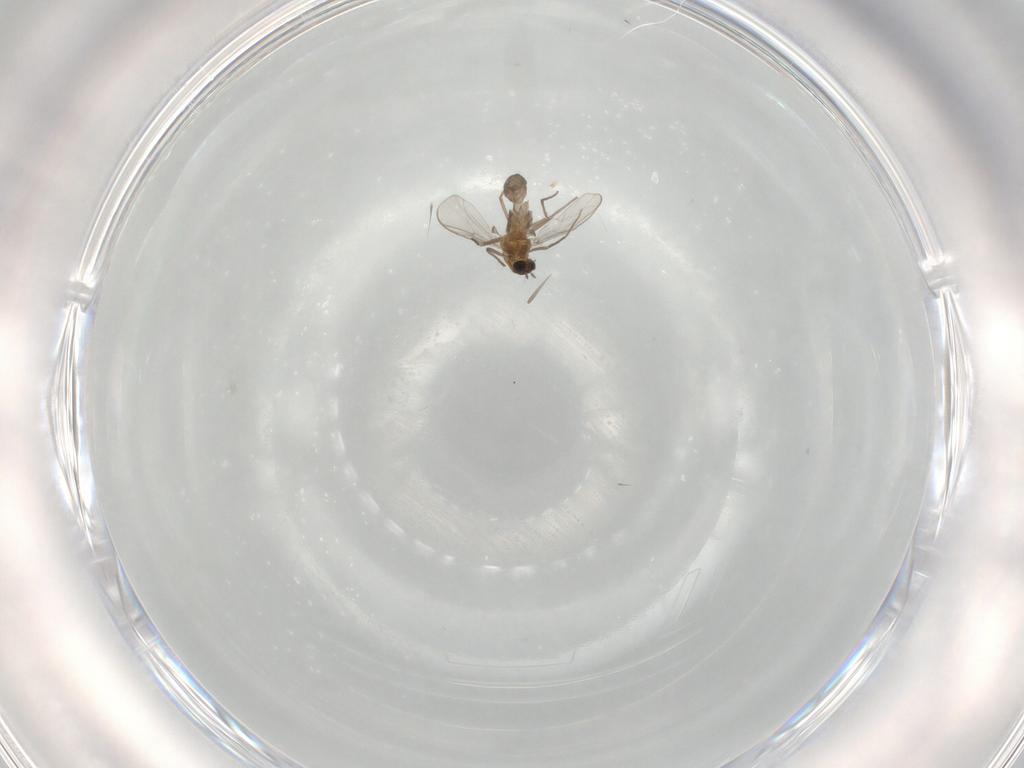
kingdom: Animalia
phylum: Arthropoda
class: Insecta
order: Diptera
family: Chironomidae
